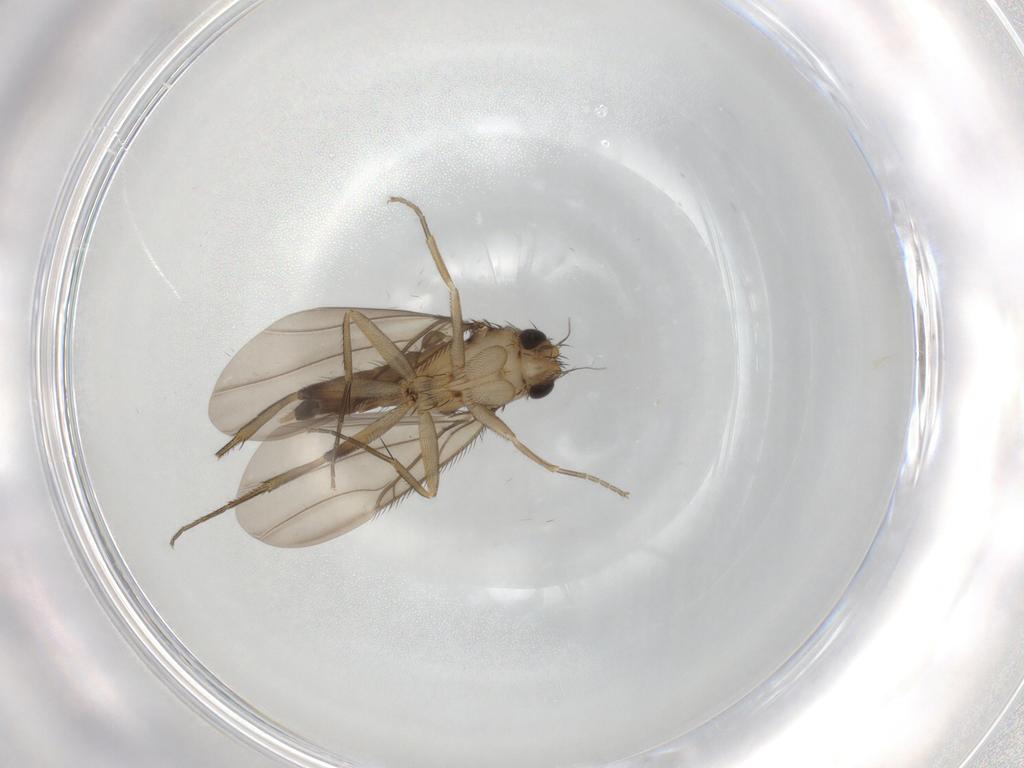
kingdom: Animalia
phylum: Arthropoda
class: Insecta
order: Diptera
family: Phoridae
